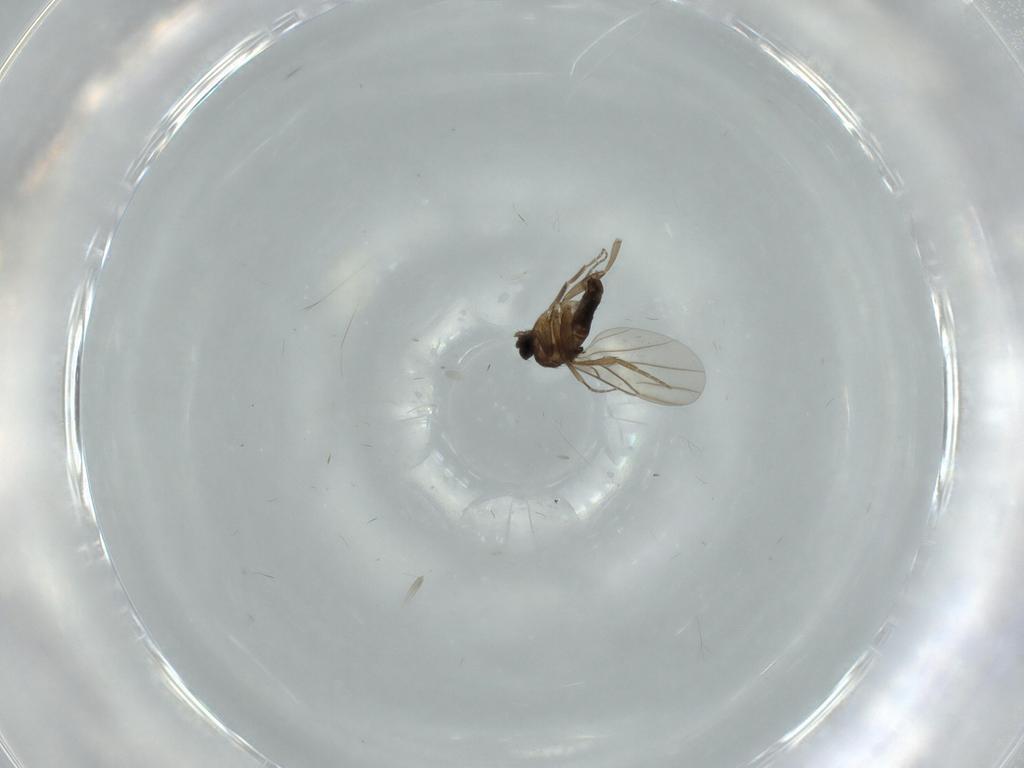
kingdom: Animalia
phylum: Arthropoda
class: Insecta
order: Diptera
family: Phoridae
